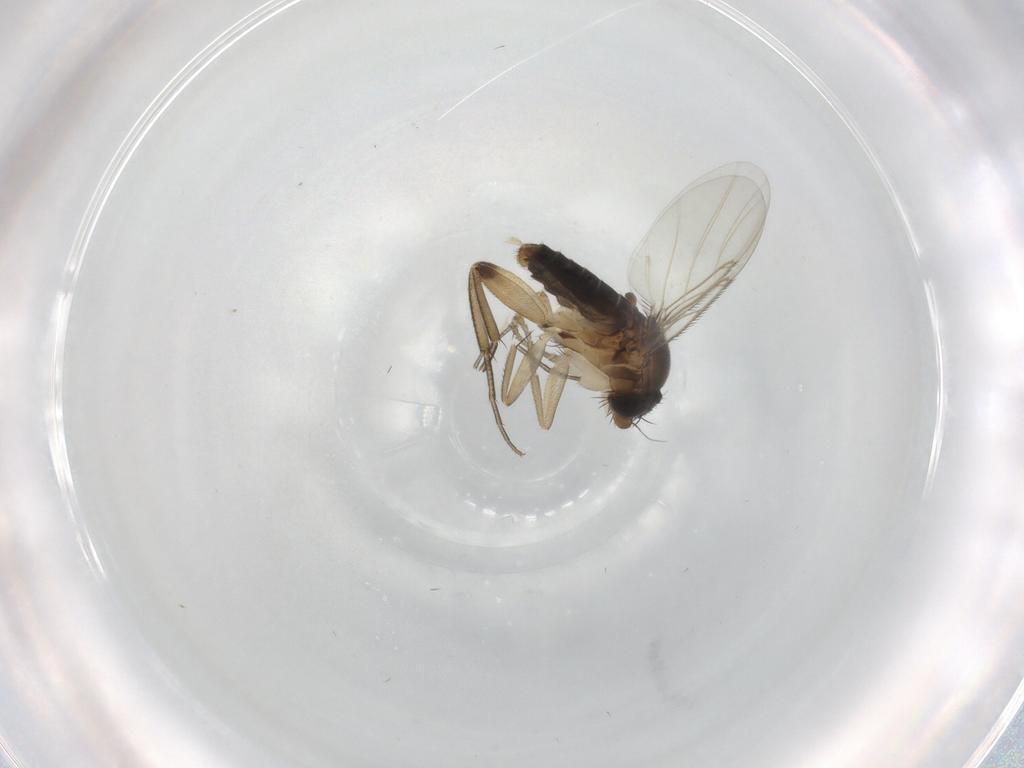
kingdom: Animalia
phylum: Arthropoda
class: Insecta
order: Diptera
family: Phoridae
